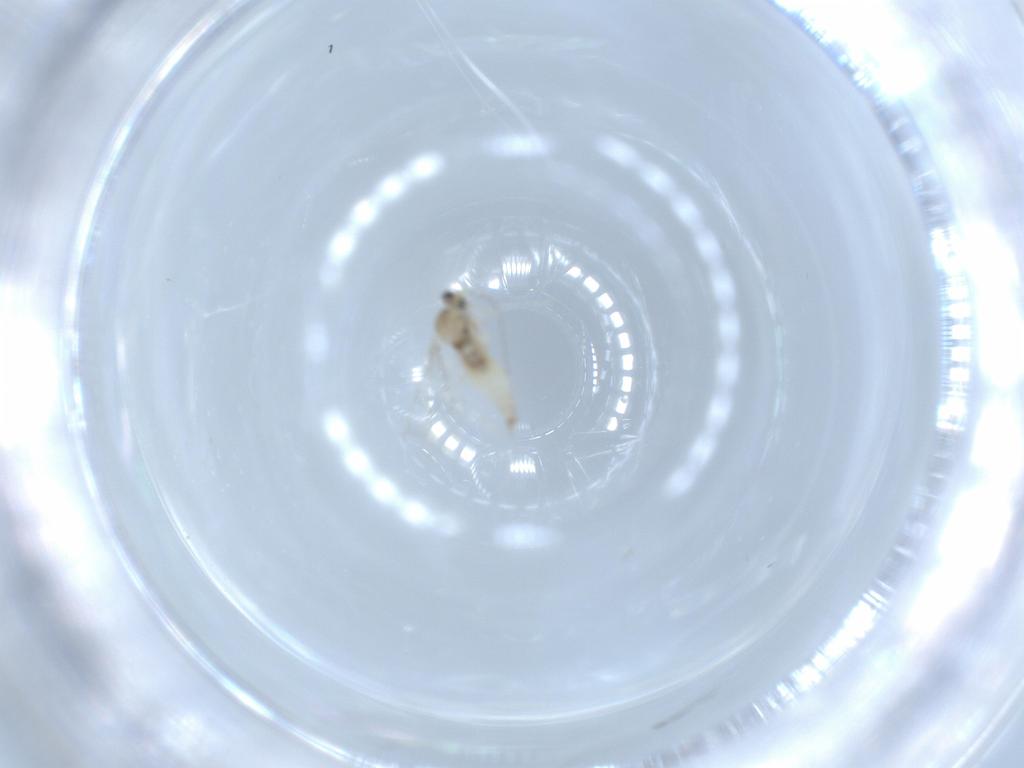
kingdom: Animalia
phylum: Arthropoda
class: Insecta
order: Diptera
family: Cecidomyiidae
